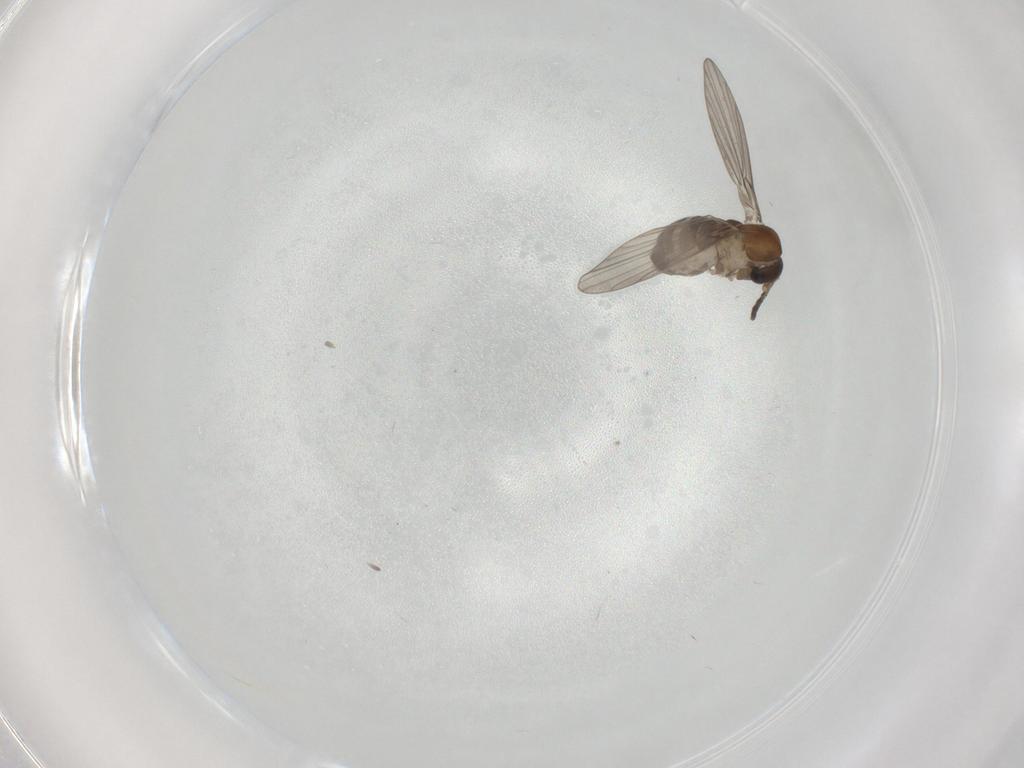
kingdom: Animalia
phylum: Arthropoda
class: Insecta
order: Diptera
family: Psychodidae
